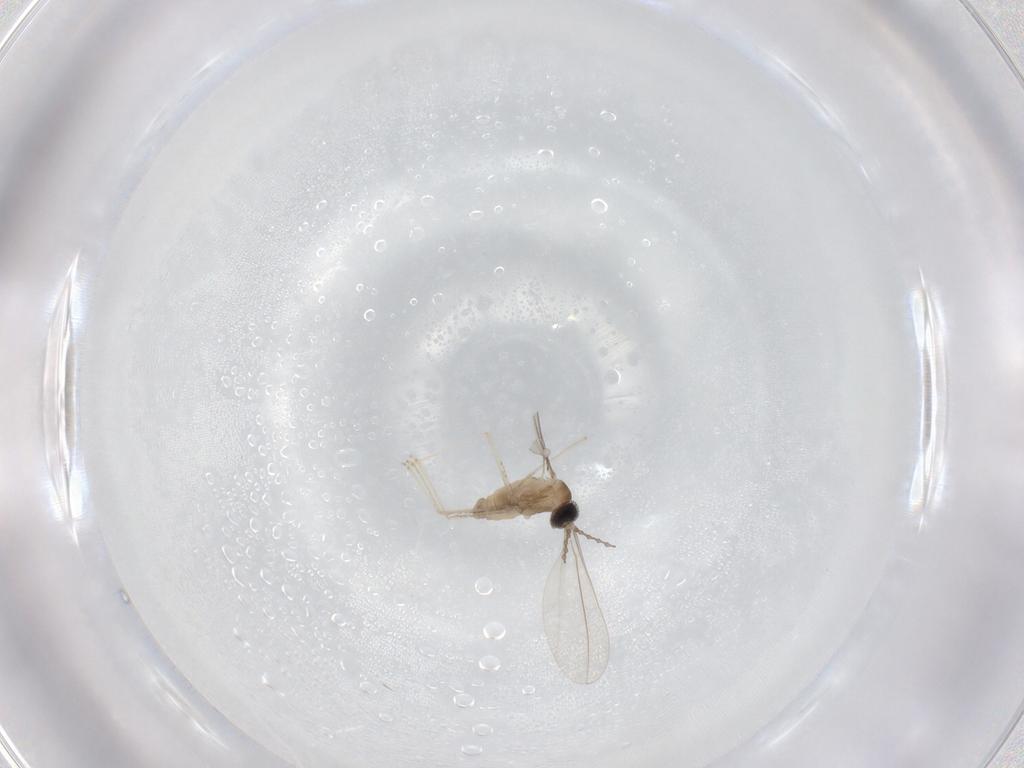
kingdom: Animalia
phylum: Arthropoda
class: Insecta
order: Diptera
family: Cecidomyiidae
